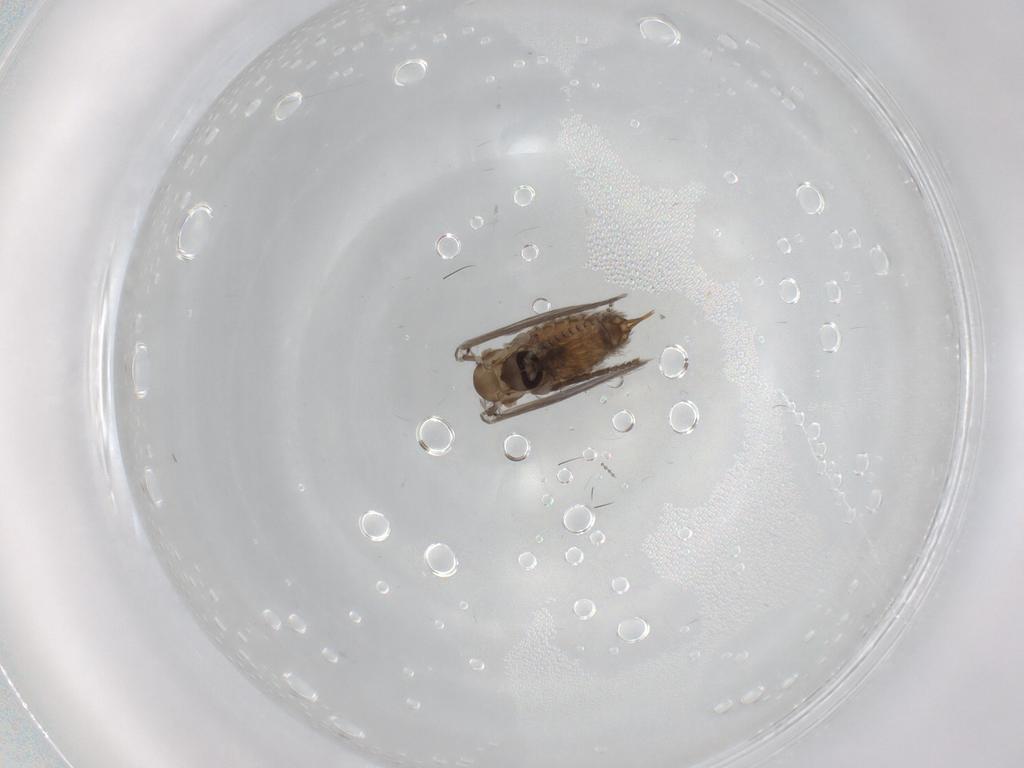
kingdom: Animalia
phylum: Arthropoda
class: Insecta
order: Diptera
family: Psychodidae
